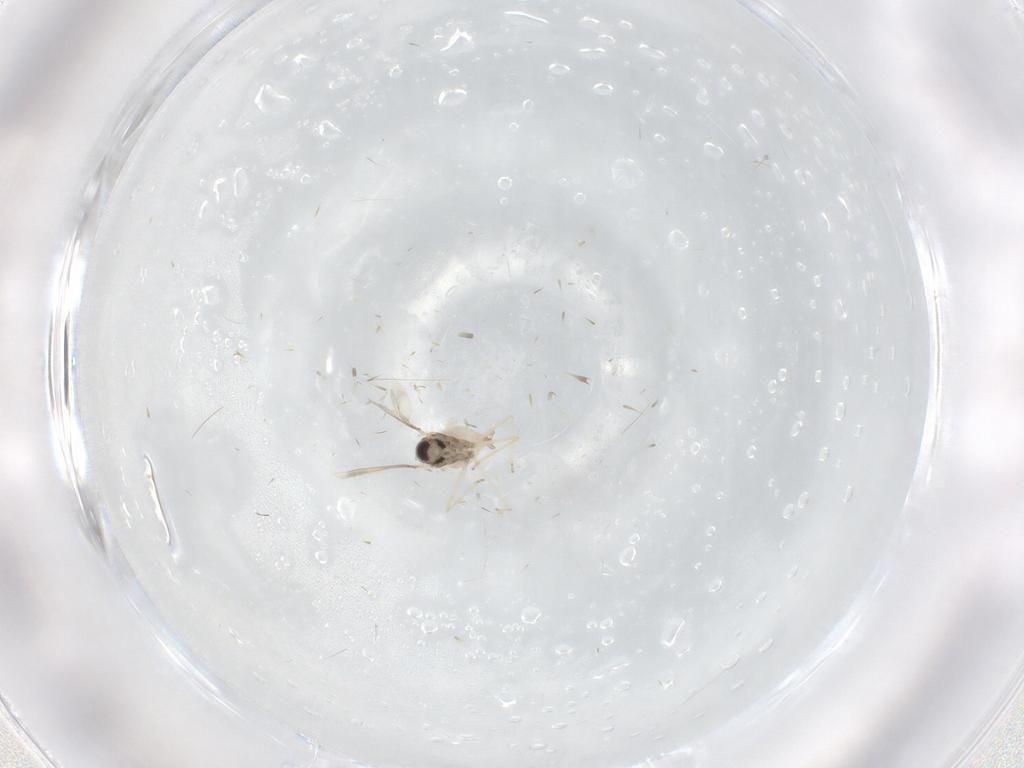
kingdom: Animalia
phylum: Arthropoda
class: Insecta
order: Diptera
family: Cecidomyiidae
